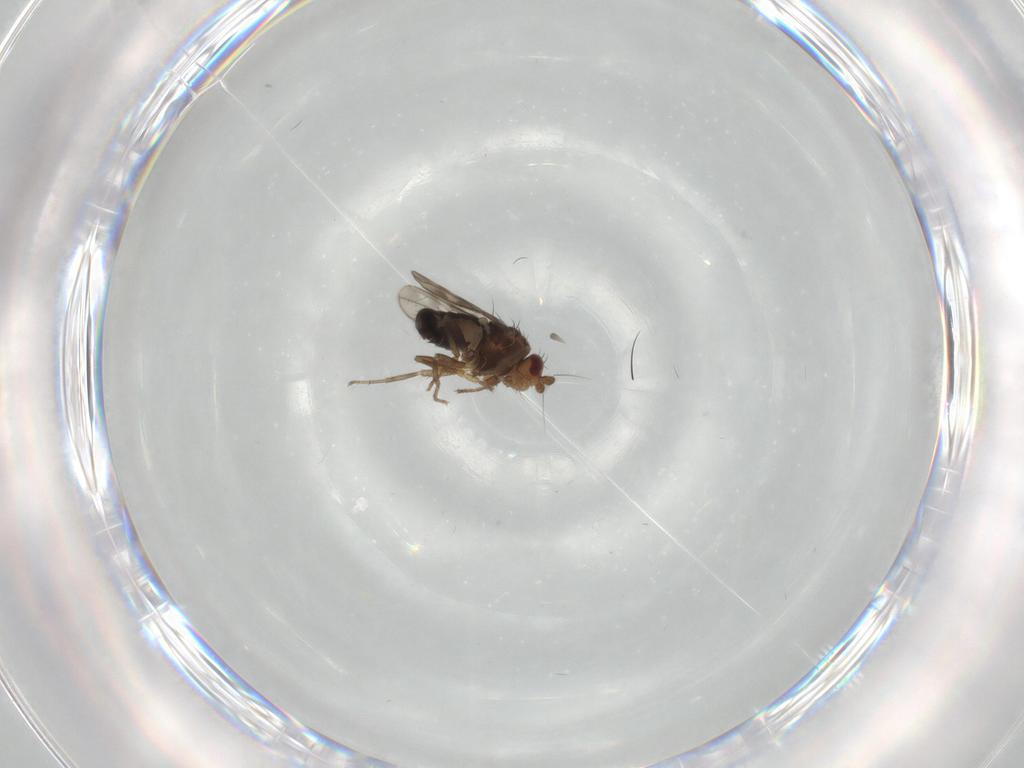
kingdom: Animalia
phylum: Arthropoda
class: Insecta
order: Diptera
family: Sphaeroceridae
